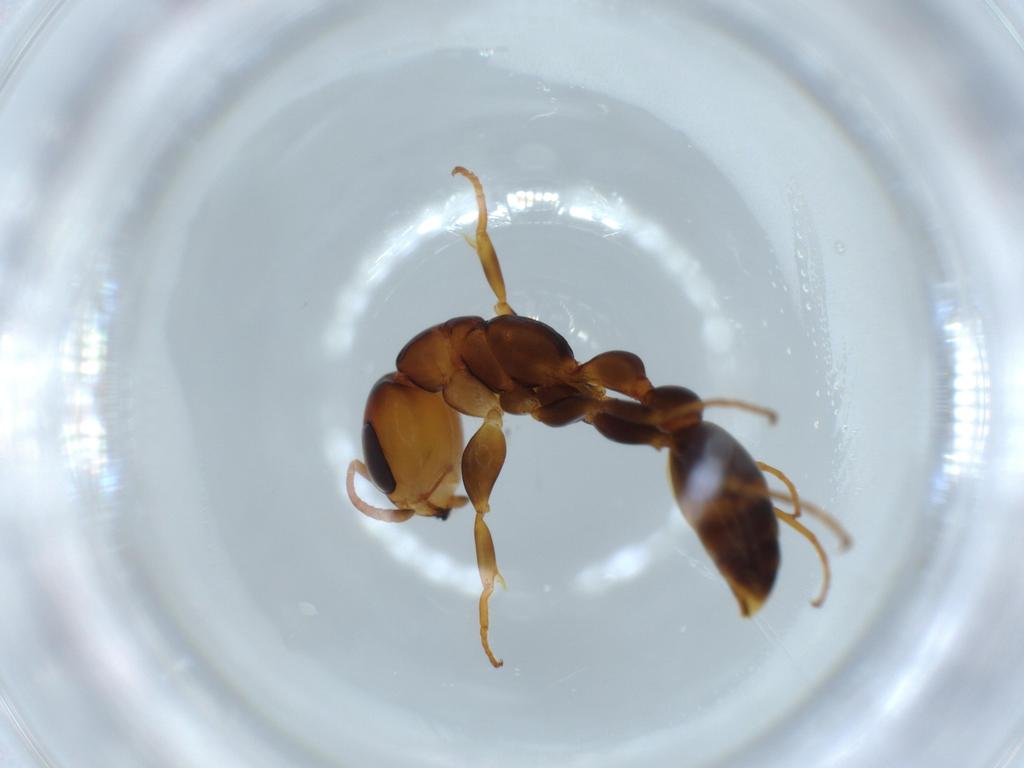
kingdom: Animalia
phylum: Arthropoda
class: Insecta
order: Hymenoptera
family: Formicidae
